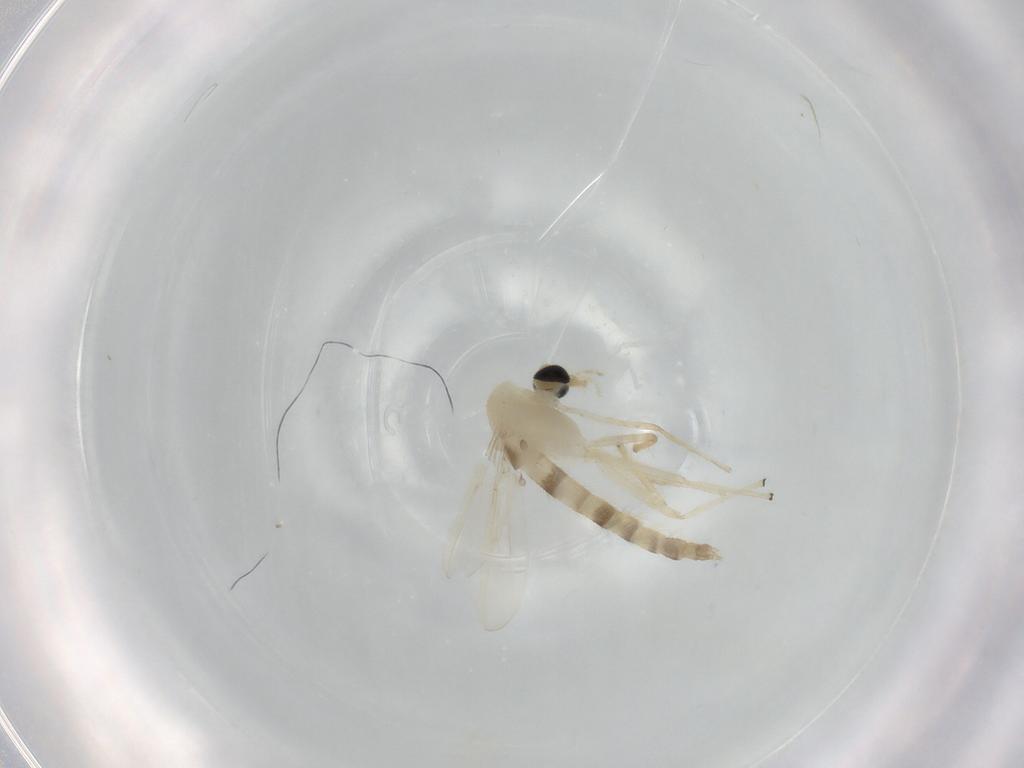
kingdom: Animalia
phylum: Arthropoda
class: Insecta
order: Diptera
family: Chironomidae
